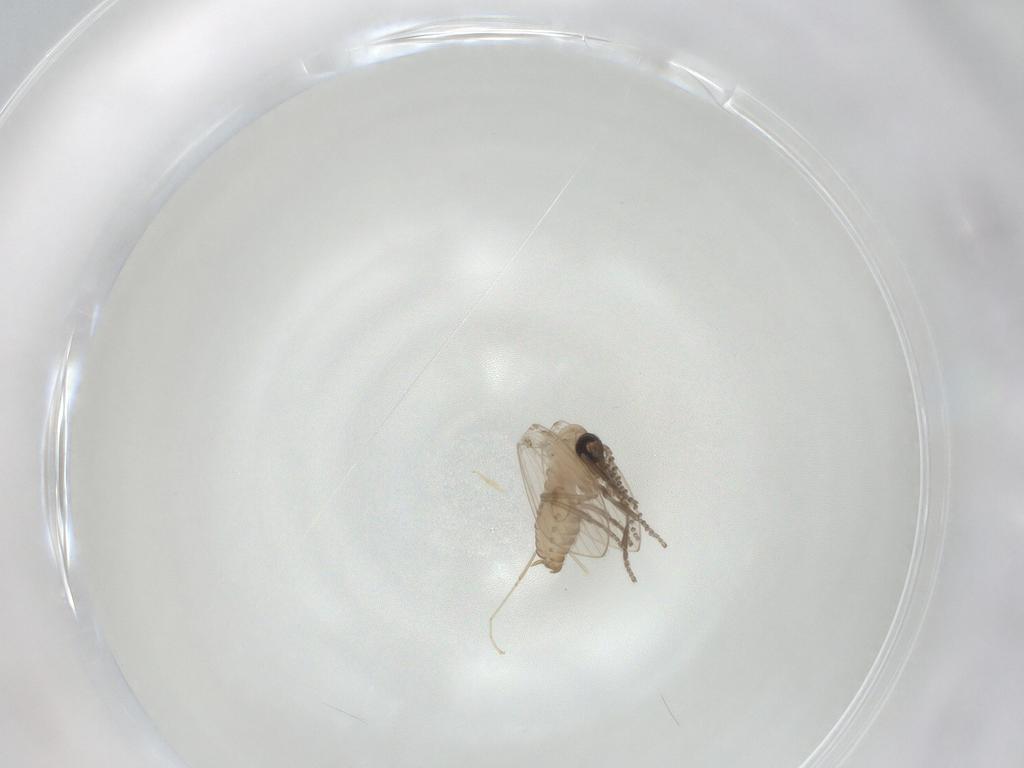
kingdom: Animalia
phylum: Arthropoda
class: Insecta
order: Diptera
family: Psychodidae
